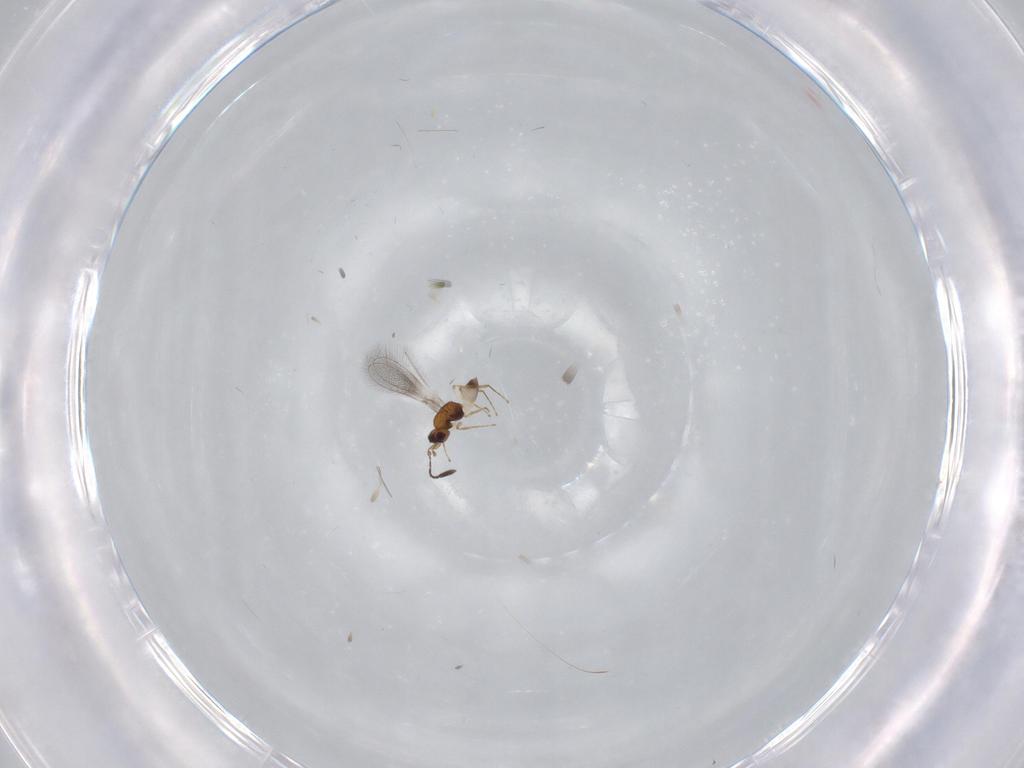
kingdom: Animalia
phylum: Arthropoda
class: Insecta
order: Hymenoptera
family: Mymaridae
